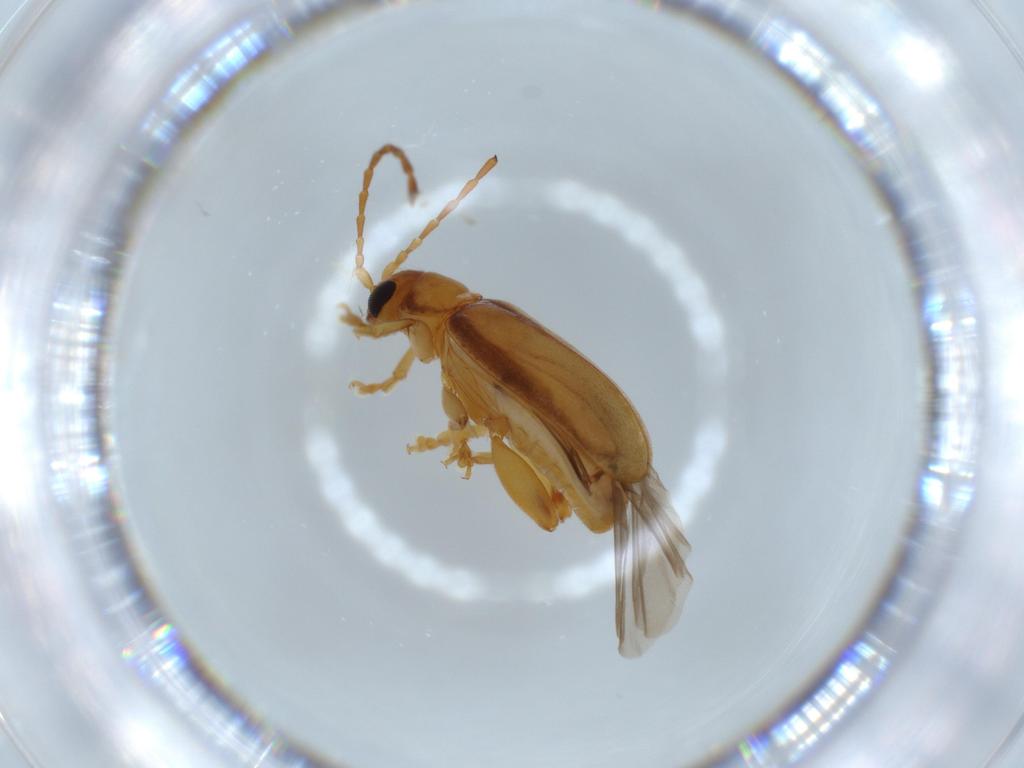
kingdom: Animalia
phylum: Arthropoda
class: Insecta
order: Coleoptera
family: Chrysomelidae
